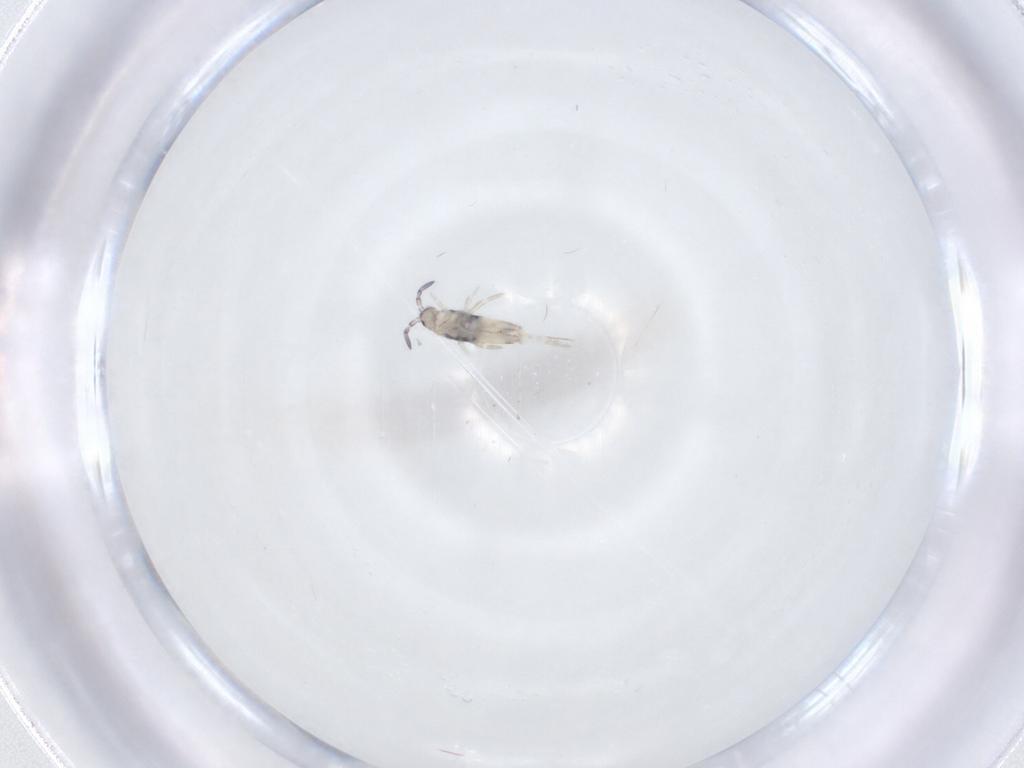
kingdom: Animalia
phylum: Arthropoda
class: Collembola
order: Entomobryomorpha
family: Entomobryidae
